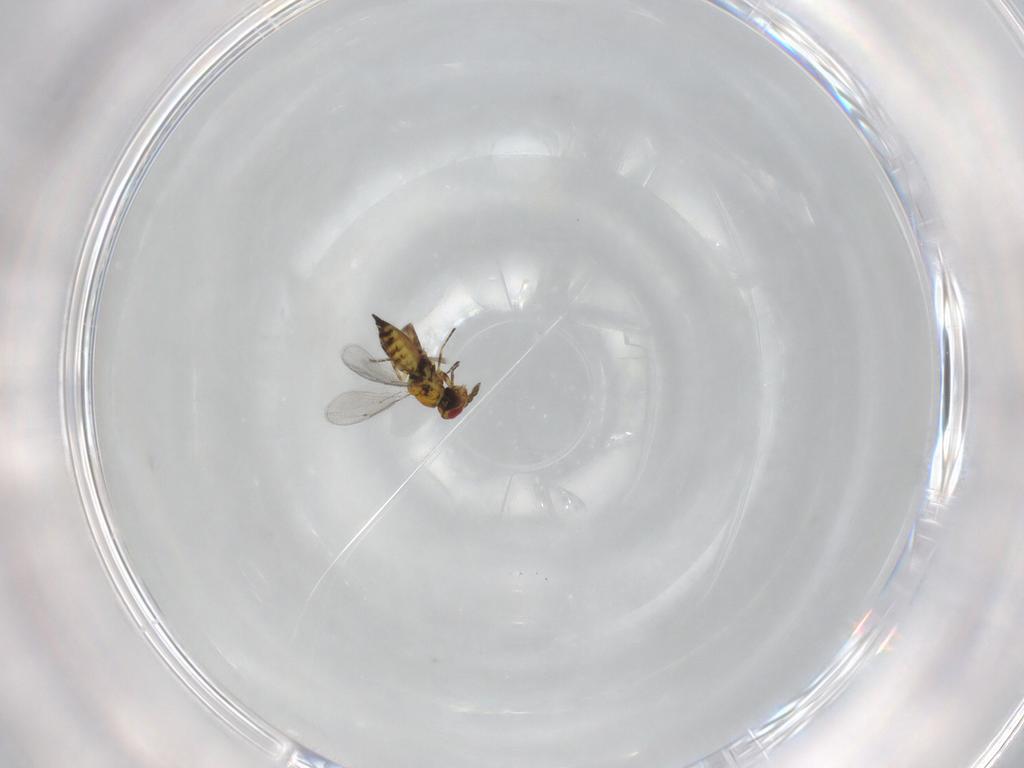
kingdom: Animalia
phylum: Arthropoda
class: Insecta
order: Hymenoptera
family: Eulophidae
